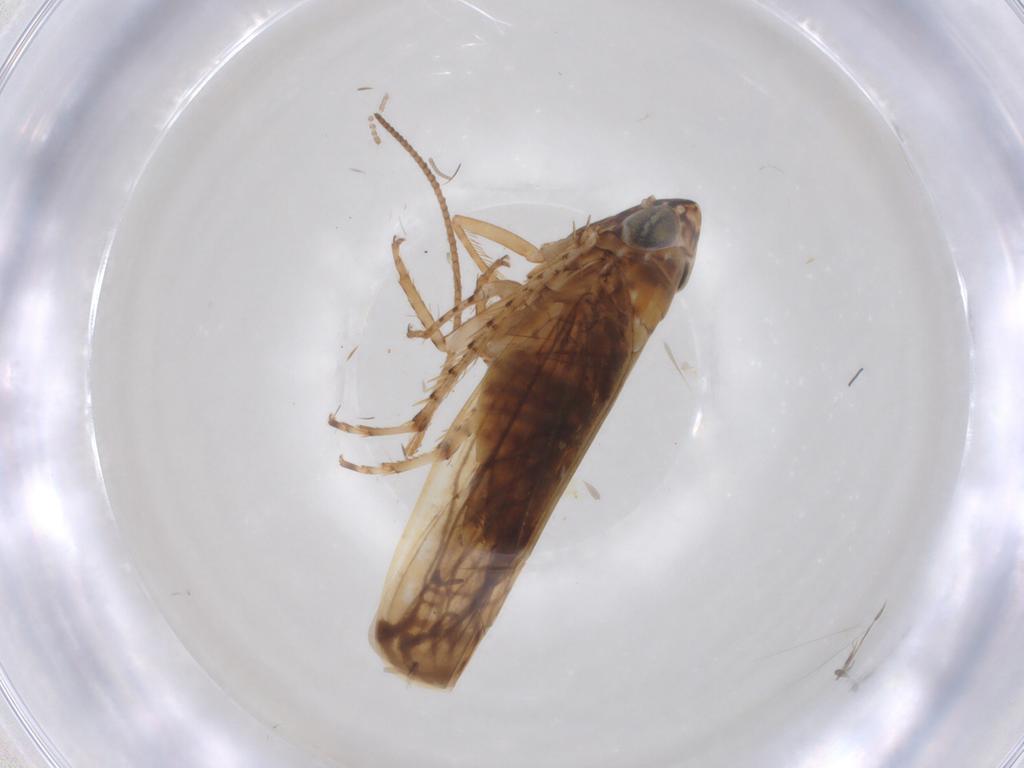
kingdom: Animalia
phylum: Arthropoda
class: Insecta
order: Hemiptera
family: Cicadellidae
